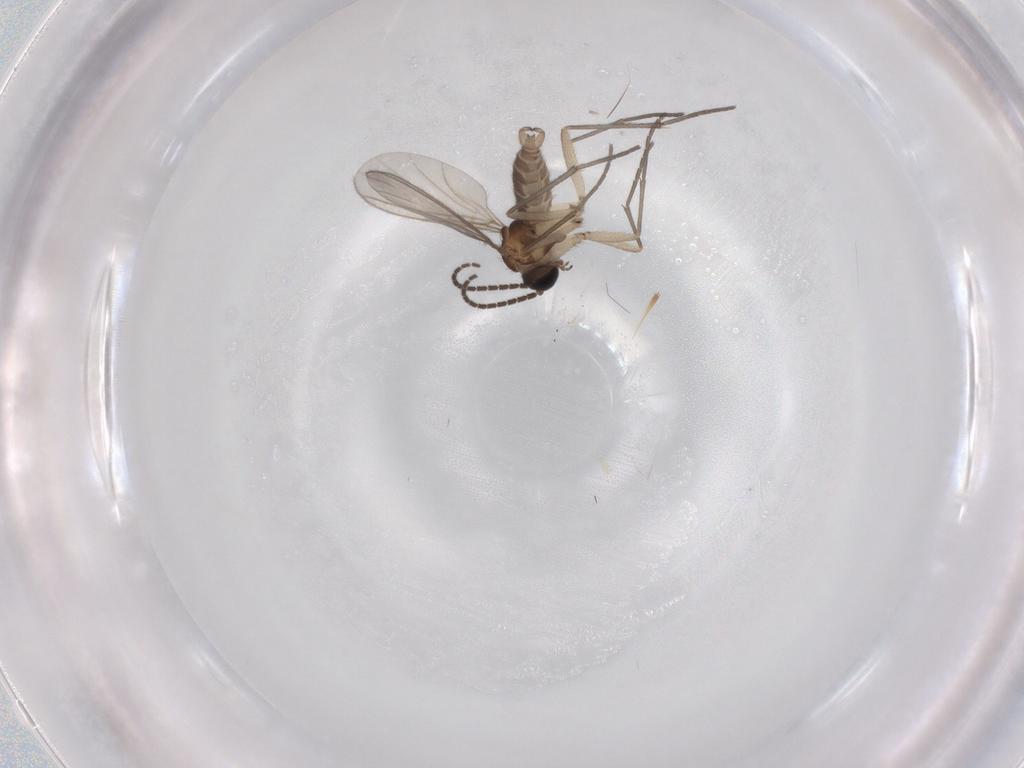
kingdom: Animalia
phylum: Arthropoda
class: Insecta
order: Diptera
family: Sciaridae
